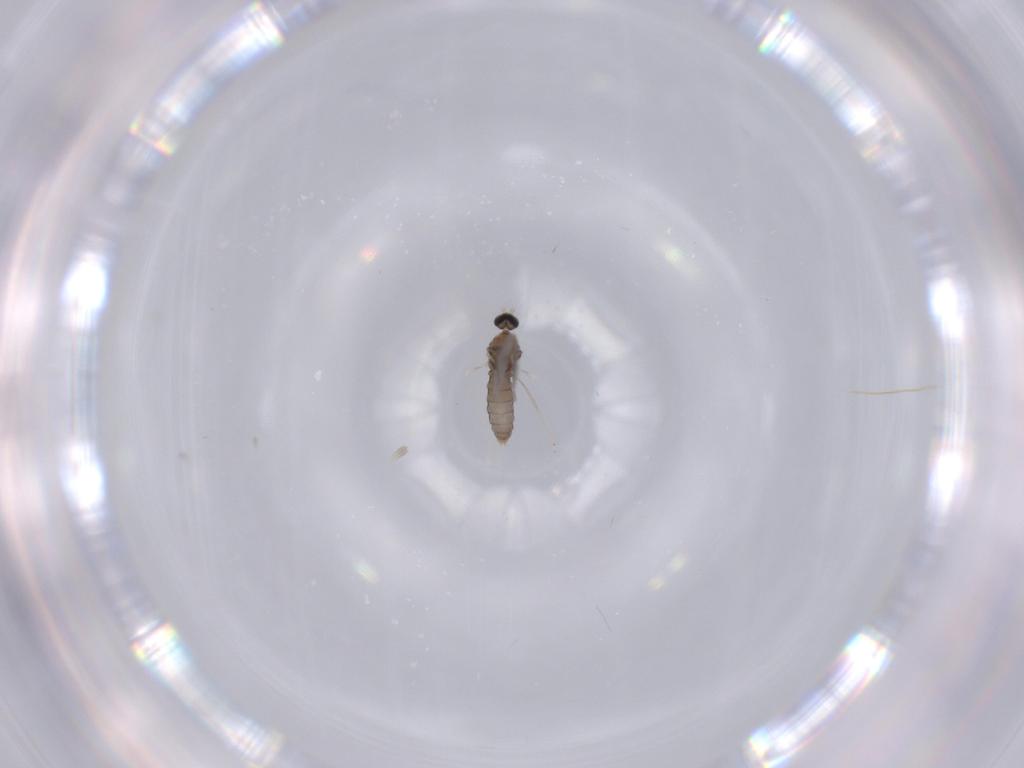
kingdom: Animalia
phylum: Arthropoda
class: Insecta
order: Diptera
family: Cecidomyiidae
